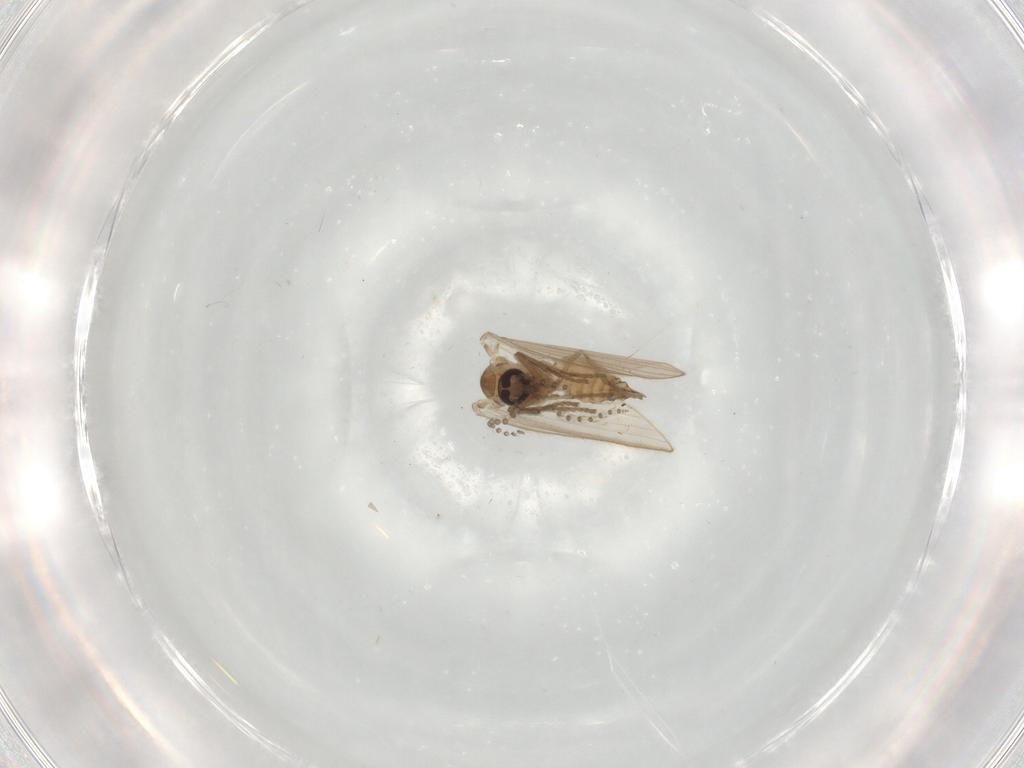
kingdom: Animalia
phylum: Arthropoda
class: Insecta
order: Diptera
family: Psychodidae
